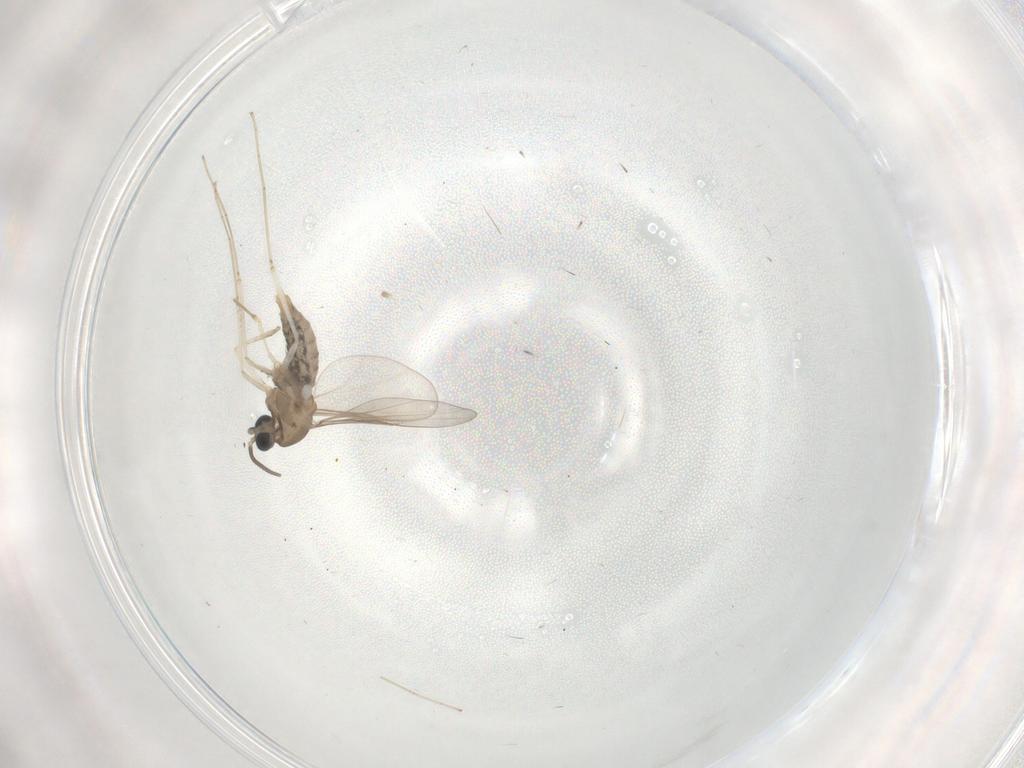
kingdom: Animalia
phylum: Arthropoda
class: Insecta
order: Diptera
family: Cecidomyiidae
